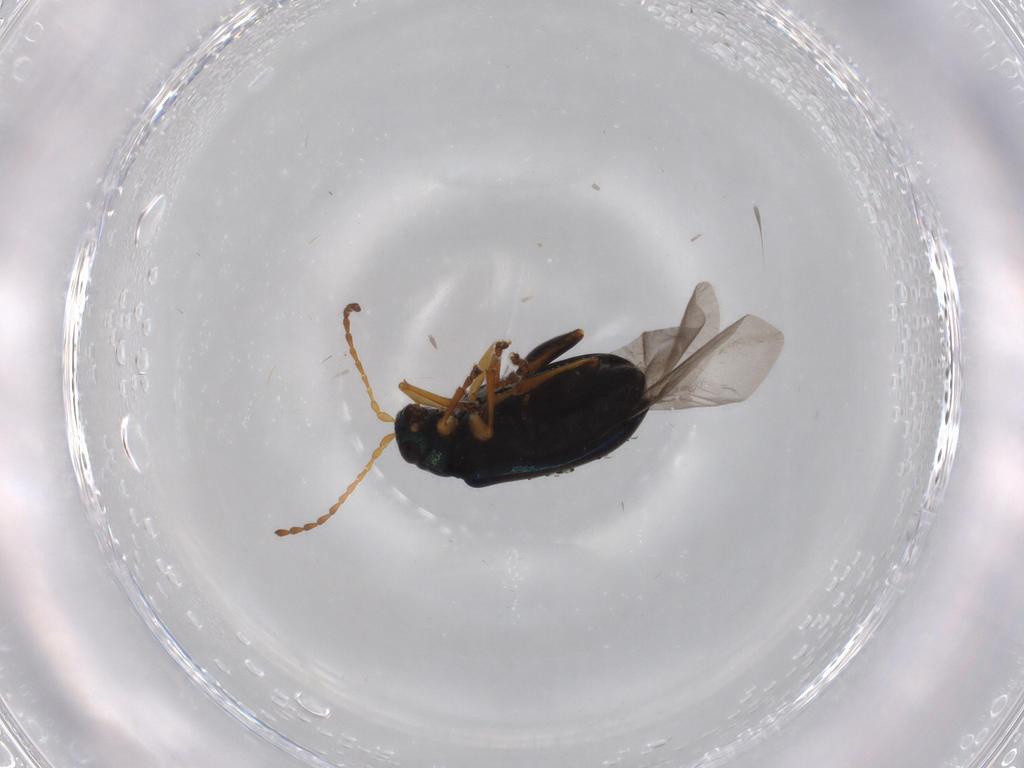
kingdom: Animalia
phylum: Arthropoda
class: Insecta
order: Coleoptera
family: Chrysomelidae
